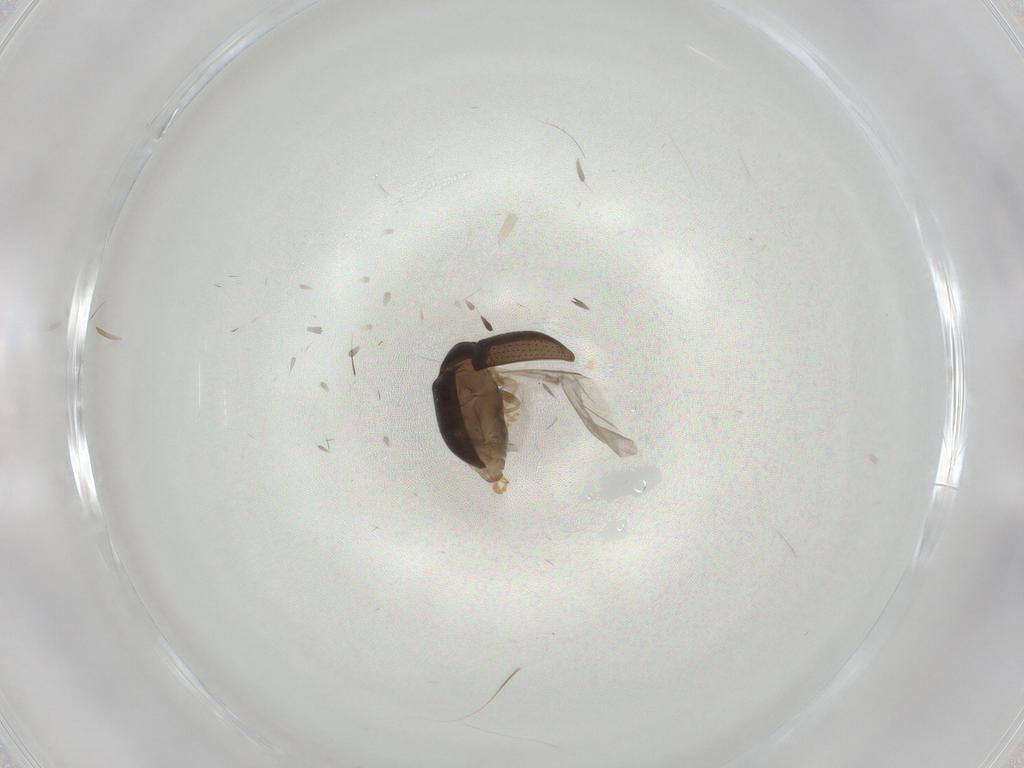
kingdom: Animalia
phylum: Arthropoda
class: Insecta
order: Coleoptera
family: Chrysomelidae
